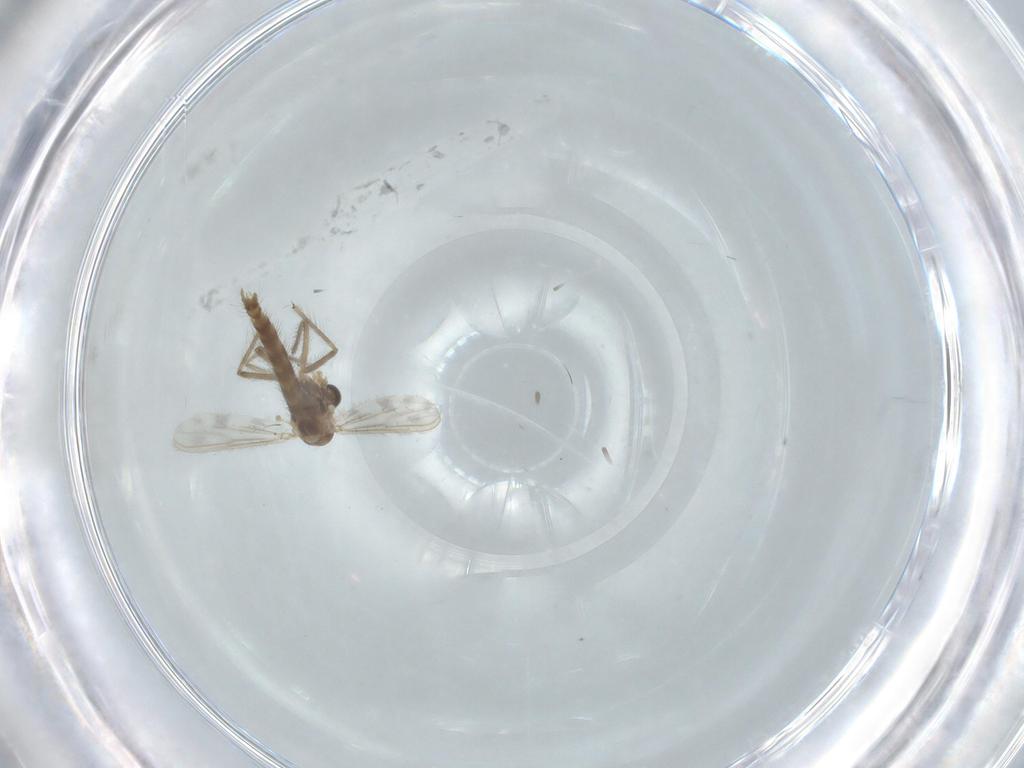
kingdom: Animalia
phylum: Arthropoda
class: Insecta
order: Diptera
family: Chironomidae
